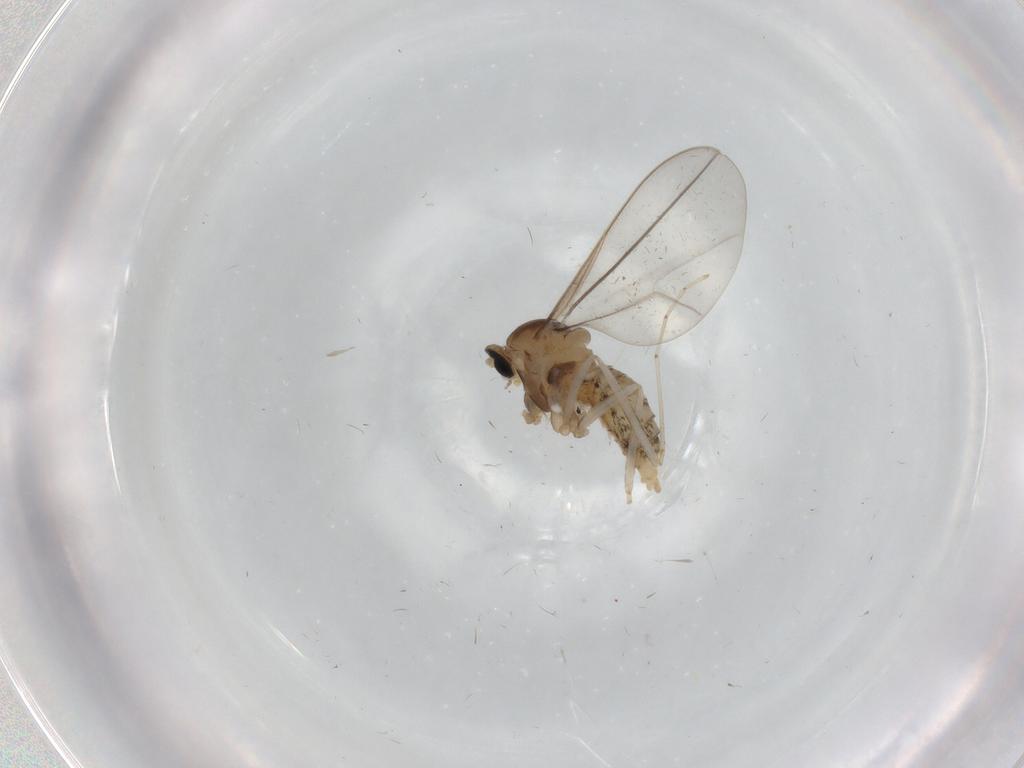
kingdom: Animalia
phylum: Arthropoda
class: Insecta
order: Diptera
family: Cecidomyiidae
